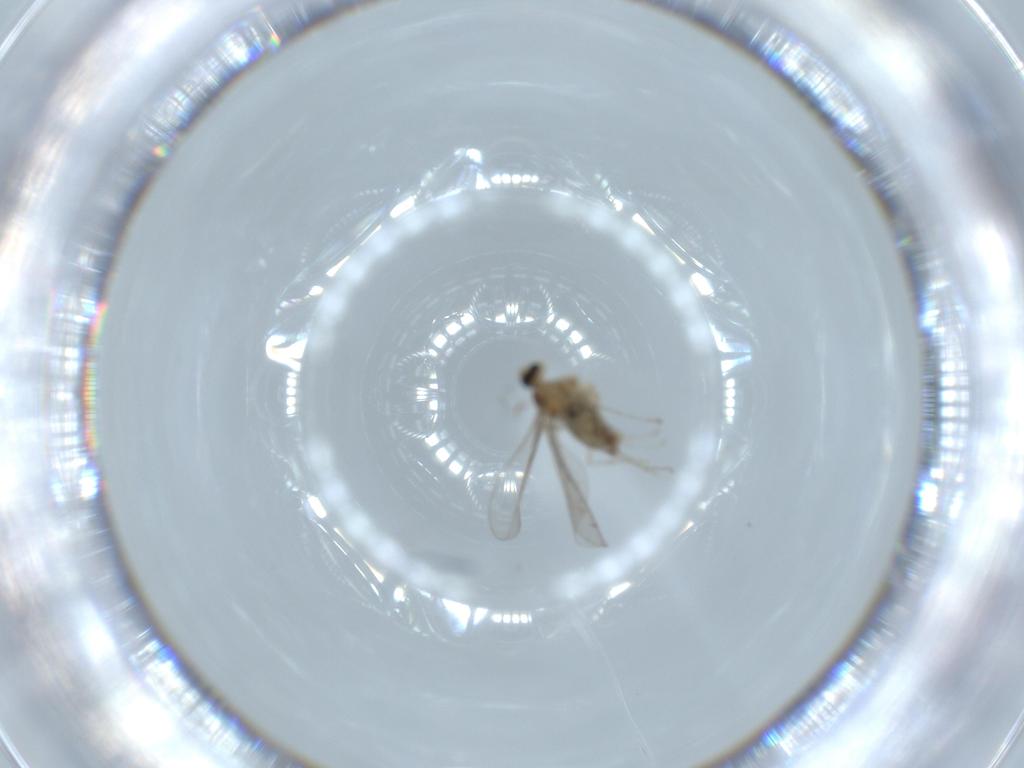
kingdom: Animalia
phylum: Arthropoda
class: Insecta
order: Diptera
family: Cecidomyiidae
